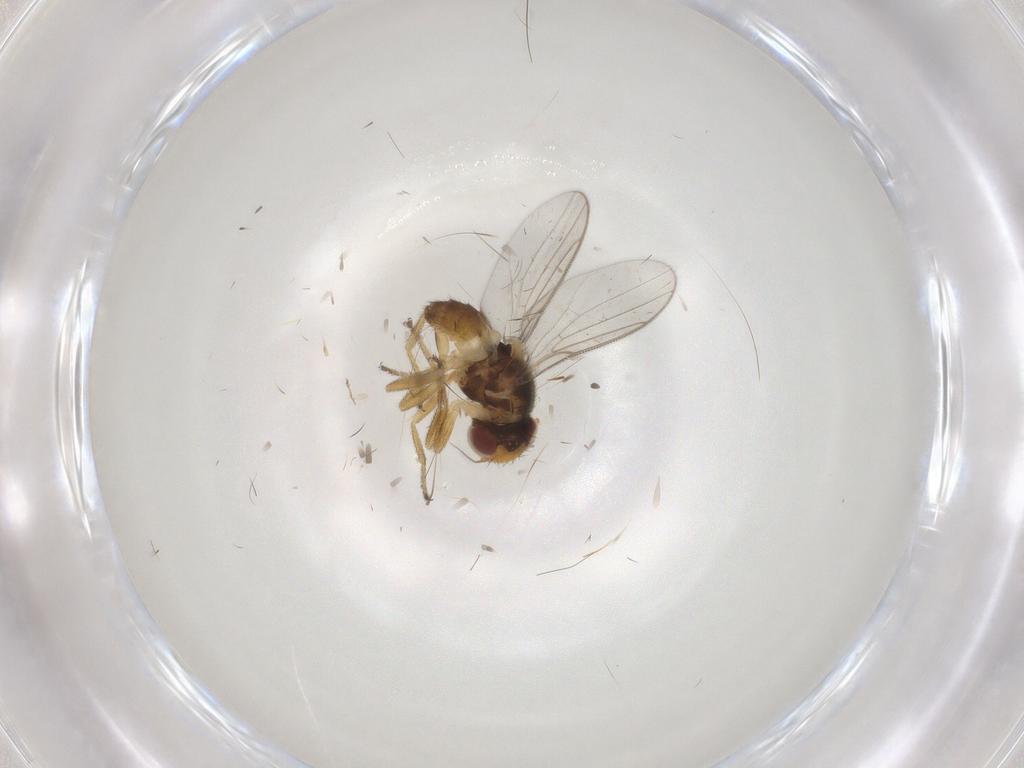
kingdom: Animalia
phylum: Arthropoda
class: Insecta
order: Diptera
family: Chloropidae
